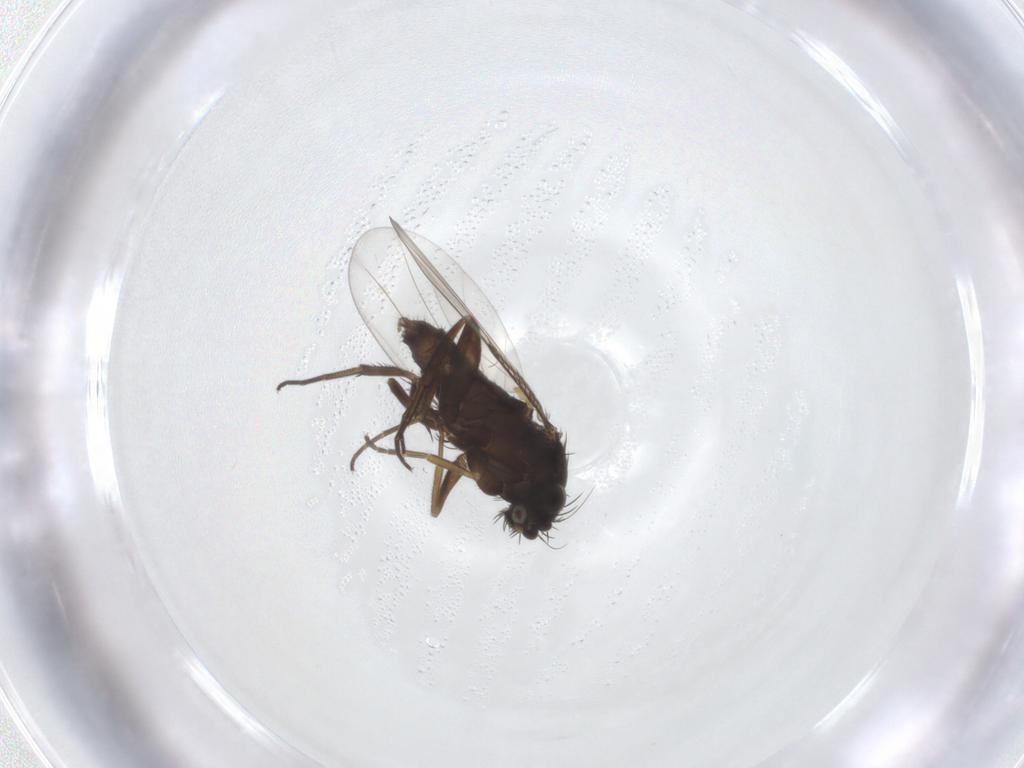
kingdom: Animalia
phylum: Arthropoda
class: Insecta
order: Diptera
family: Phoridae
